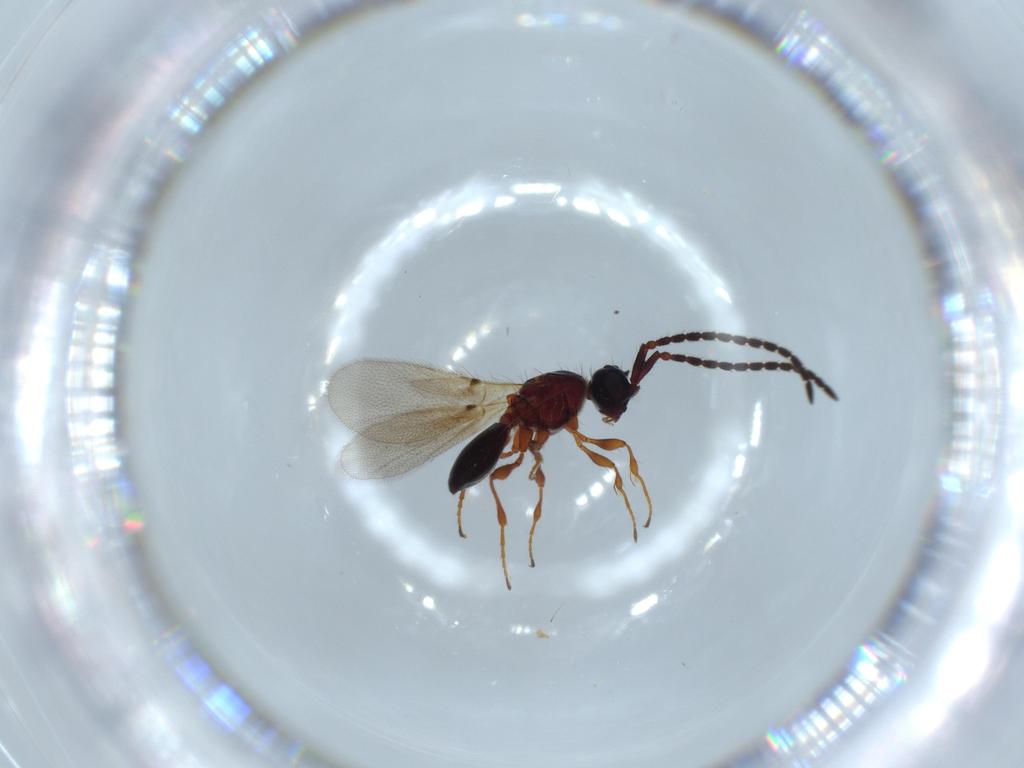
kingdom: Animalia
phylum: Arthropoda
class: Insecta
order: Hymenoptera
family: Diapriidae
